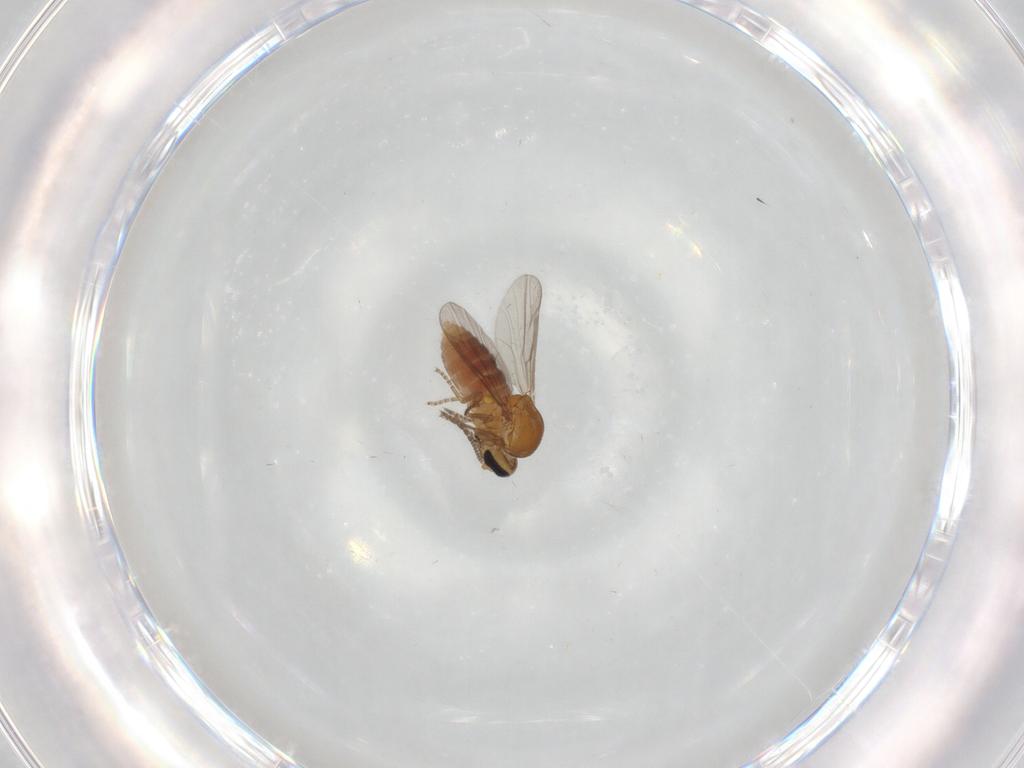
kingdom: Animalia
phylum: Arthropoda
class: Insecta
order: Diptera
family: Ceratopogonidae
